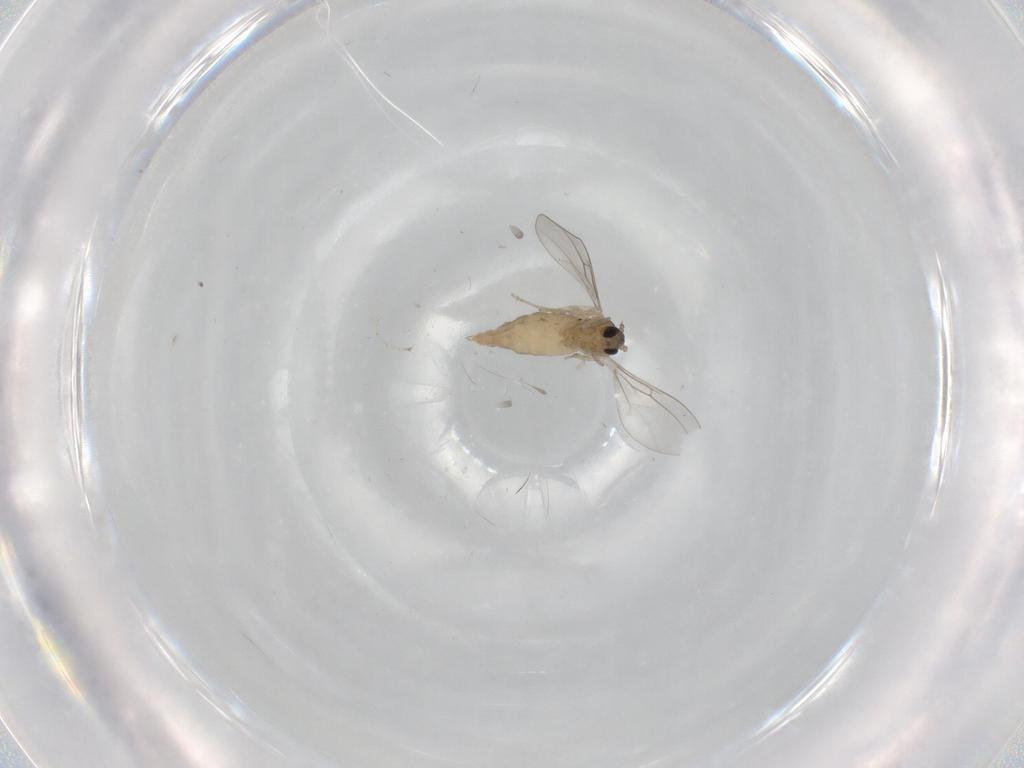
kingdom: Animalia
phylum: Arthropoda
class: Insecta
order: Diptera
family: Cecidomyiidae
